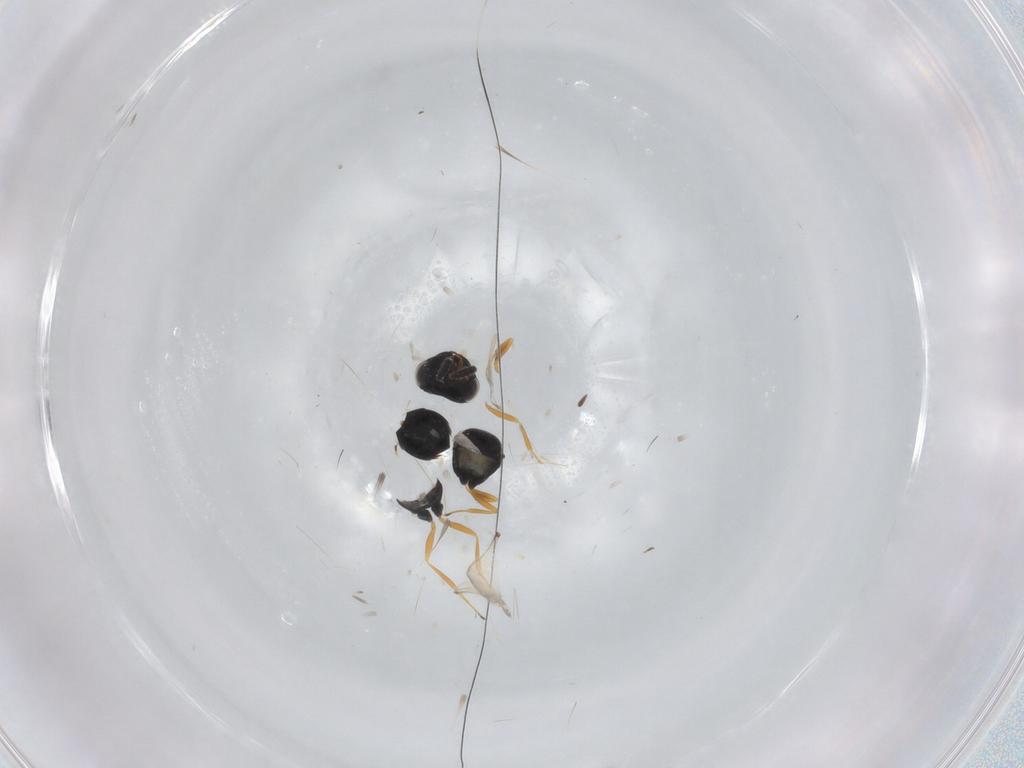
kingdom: Animalia
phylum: Arthropoda
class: Insecta
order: Hymenoptera
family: Scelionidae
